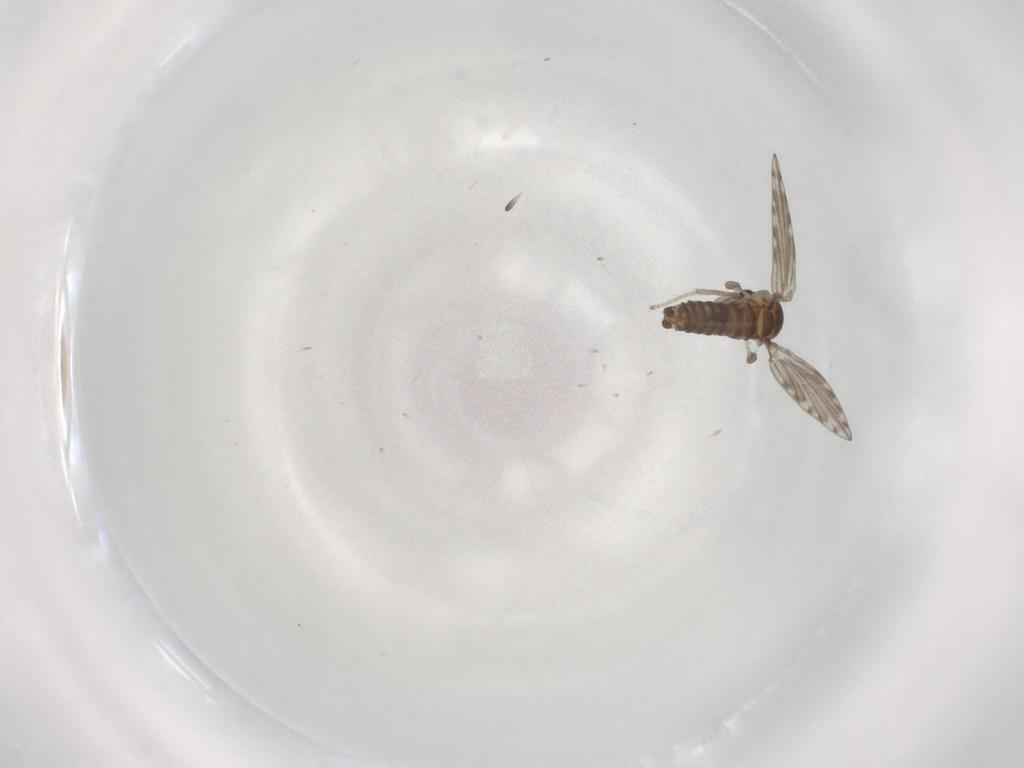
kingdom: Animalia
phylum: Arthropoda
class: Insecta
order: Diptera
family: Psychodidae
